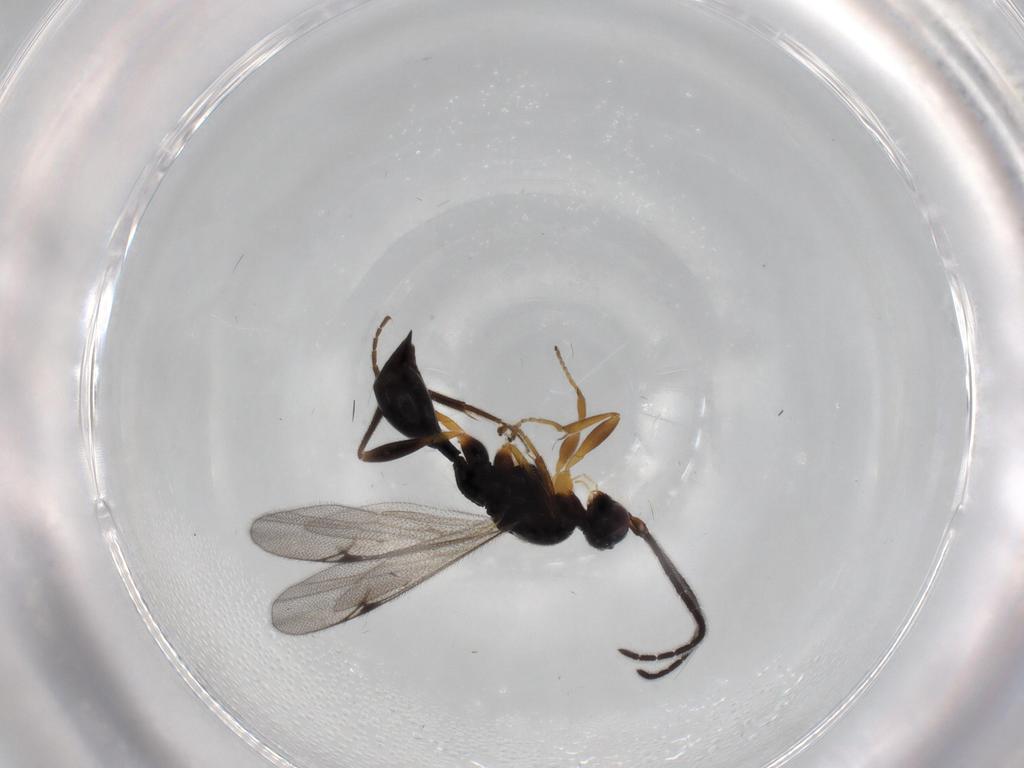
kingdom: Animalia
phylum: Arthropoda
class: Insecta
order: Hymenoptera
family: Proctotrupidae
